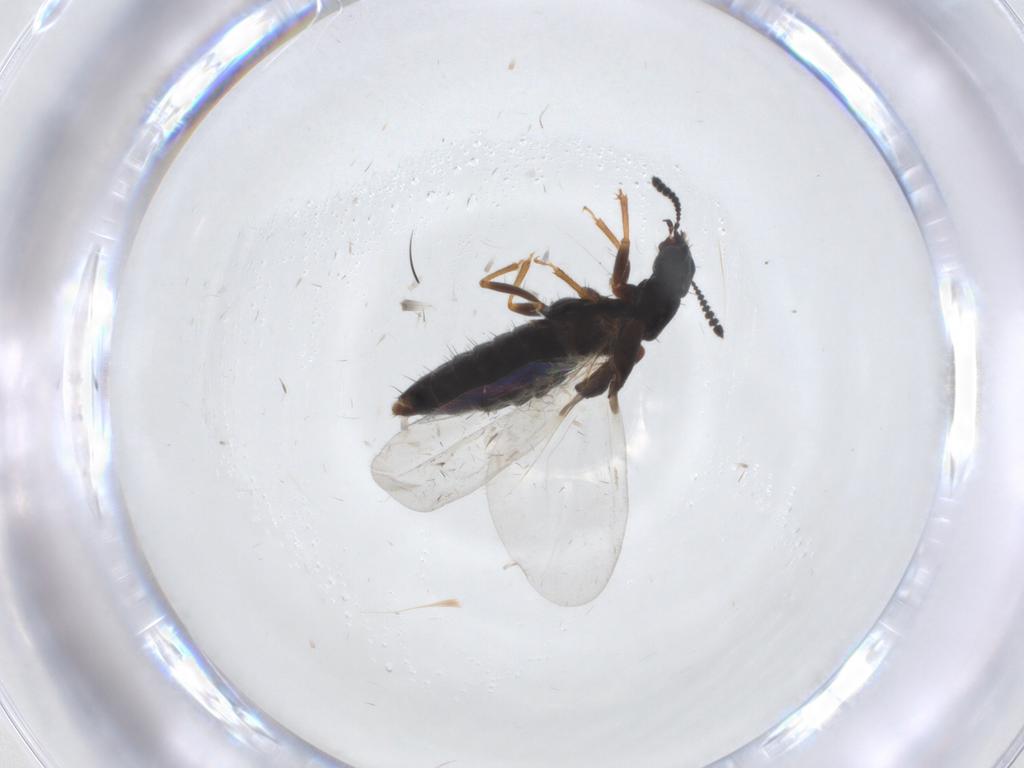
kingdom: Animalia
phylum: Arthropoda
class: Insecta
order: Coleoptera
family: Staphylinidae
